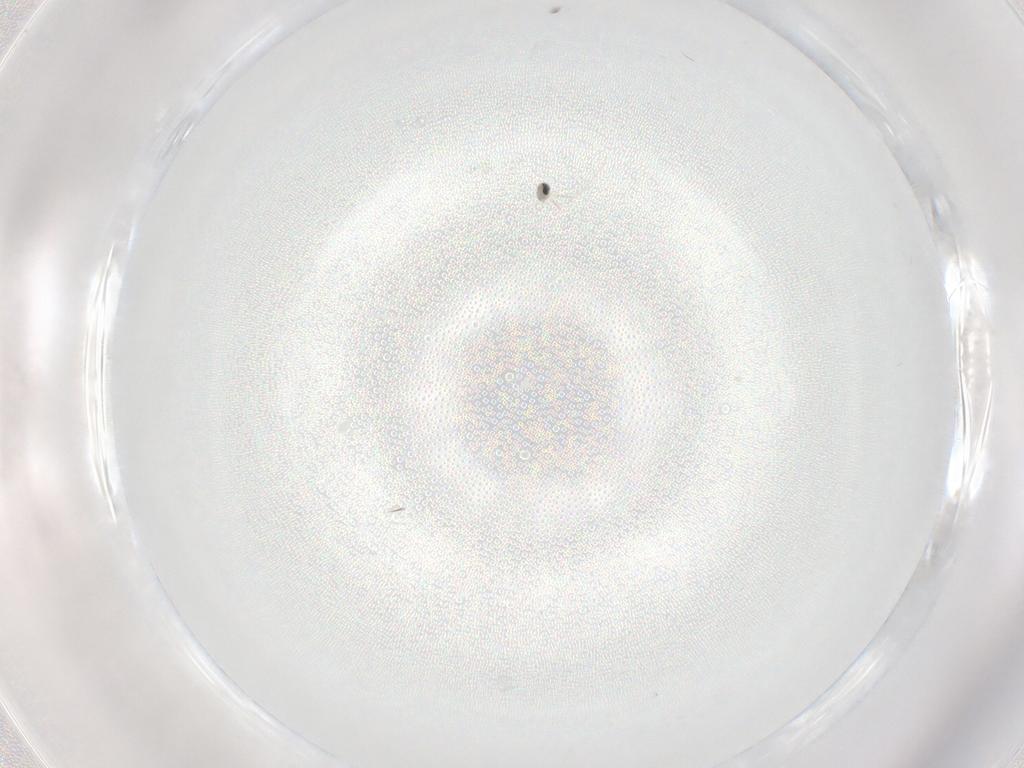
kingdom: Animalia
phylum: Arthropoda
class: Insecta
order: Diptera
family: Cecidomyiidae
